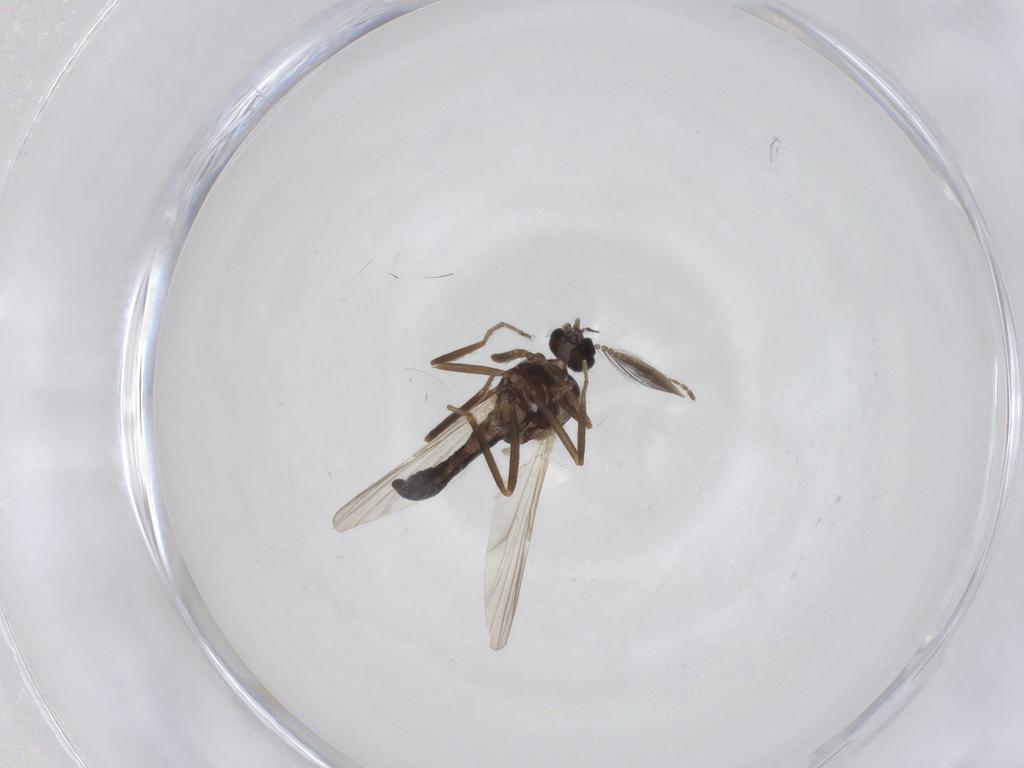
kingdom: Animalia
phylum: Arthropoda
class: Insecta
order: Diptera
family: Ceratopogonidae
